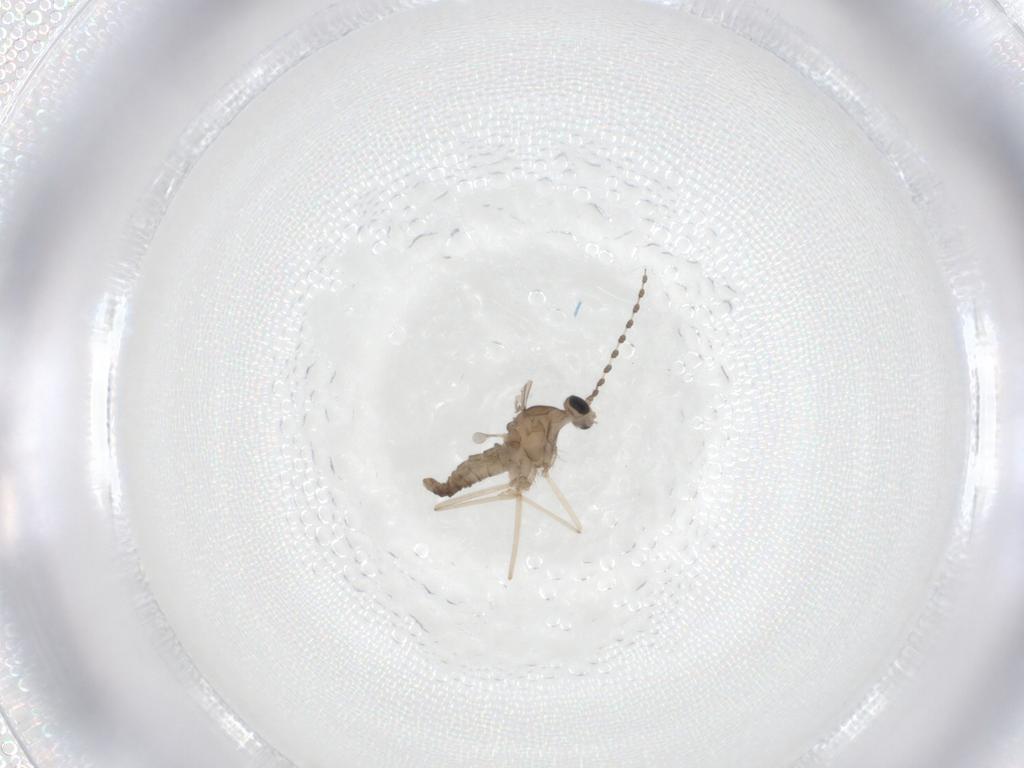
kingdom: Animalia
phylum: Arthropoda
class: Insecta
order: Diptera
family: Cecidomyiidae
